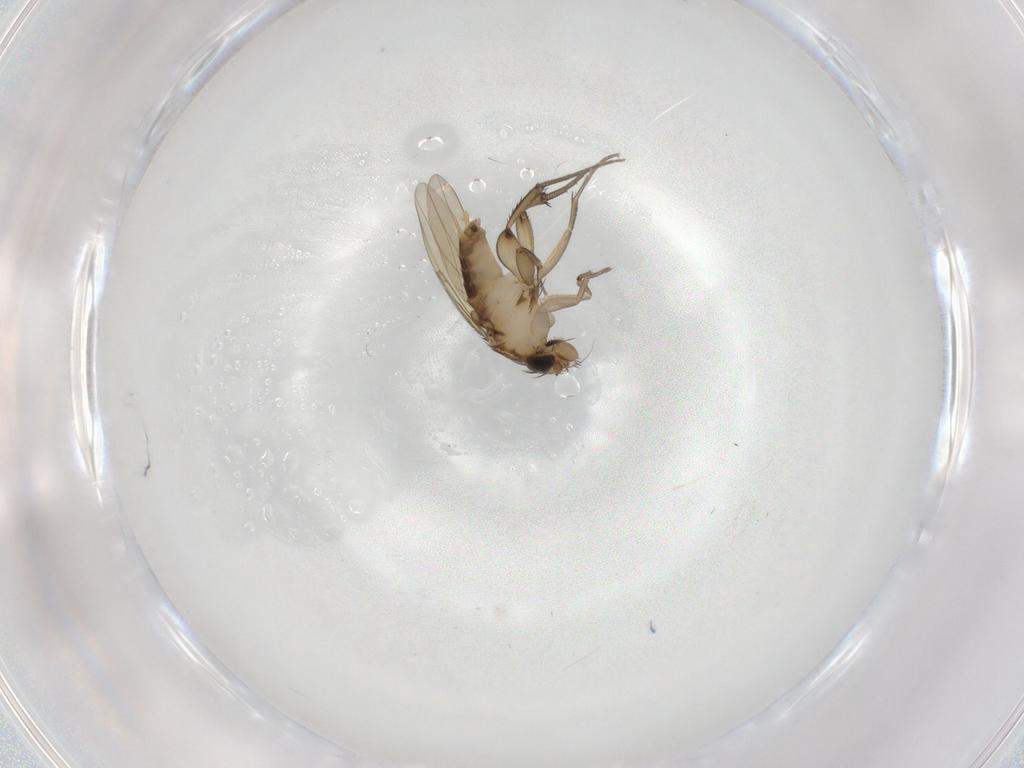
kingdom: Animalia
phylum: Arthropoda
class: Insecta
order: Diptera
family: Phoridae
